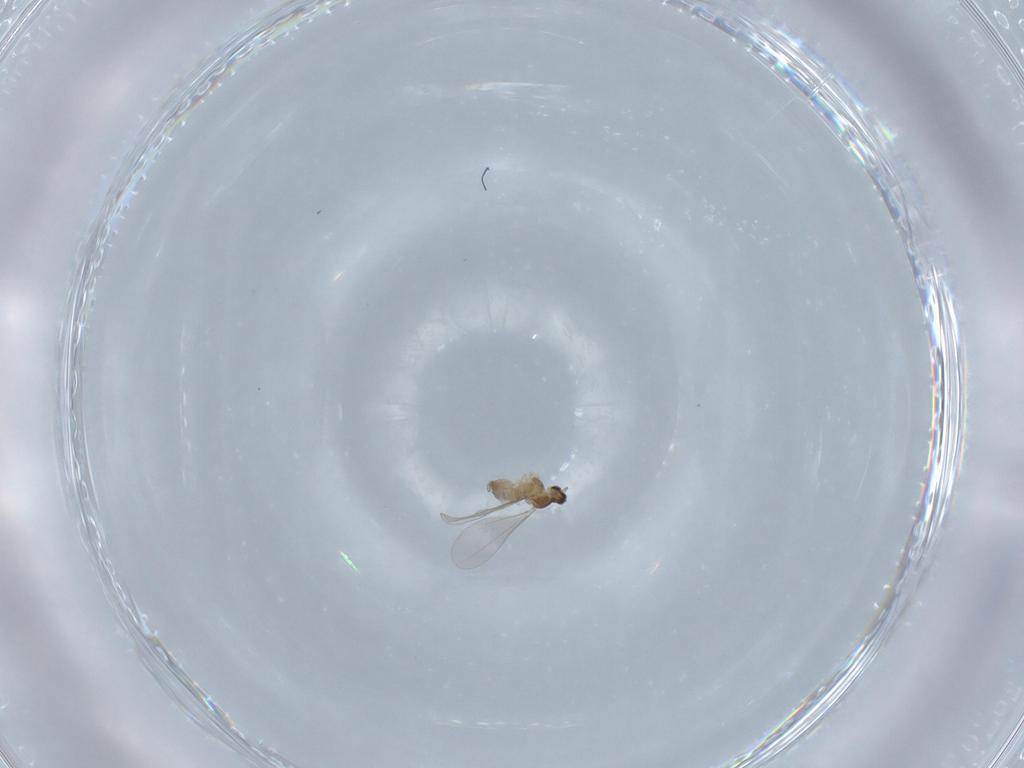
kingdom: Animalia
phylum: Arthropoda
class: Insecta
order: Diptera
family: Cecidomyiidae
